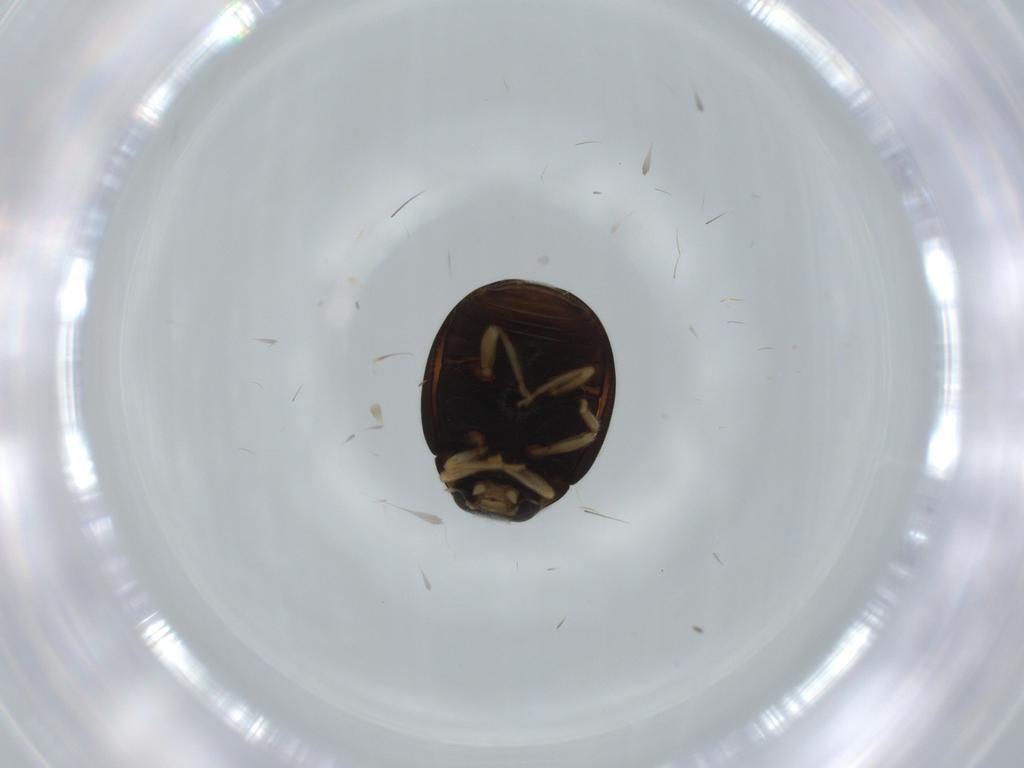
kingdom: Animalia
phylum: Arthropoda
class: Insecta
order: Coleoptera
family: Coccinellidae
